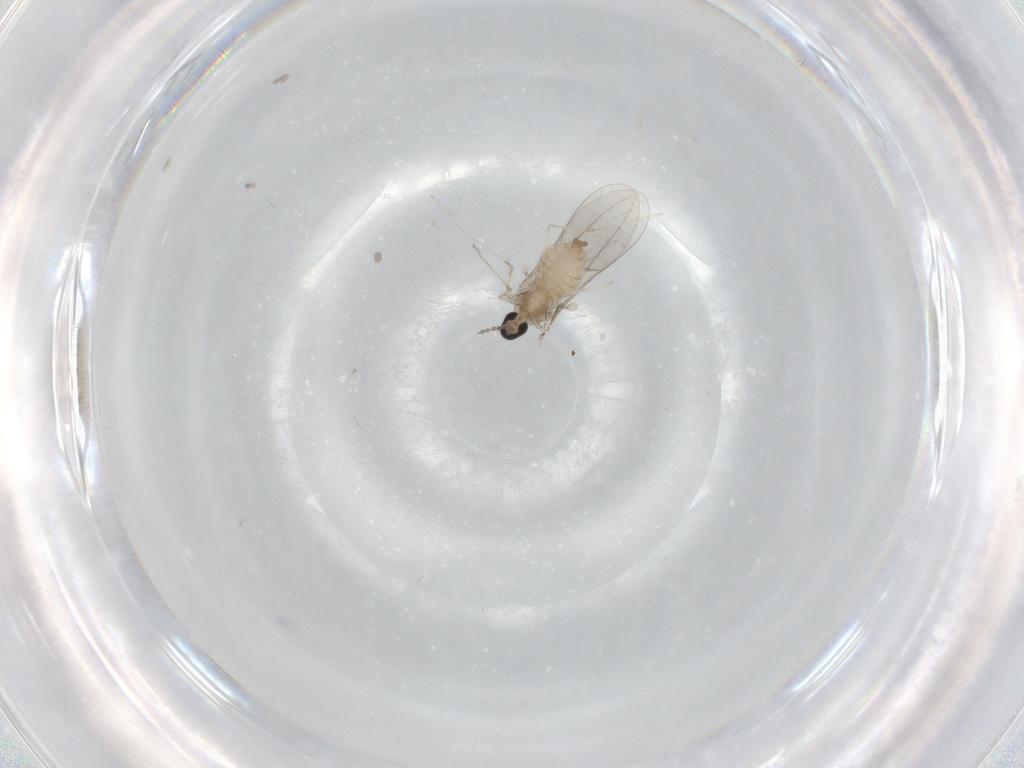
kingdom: Animalia
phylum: Arthropoda
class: Insecta
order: Diptera
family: Cecidomyiidae
